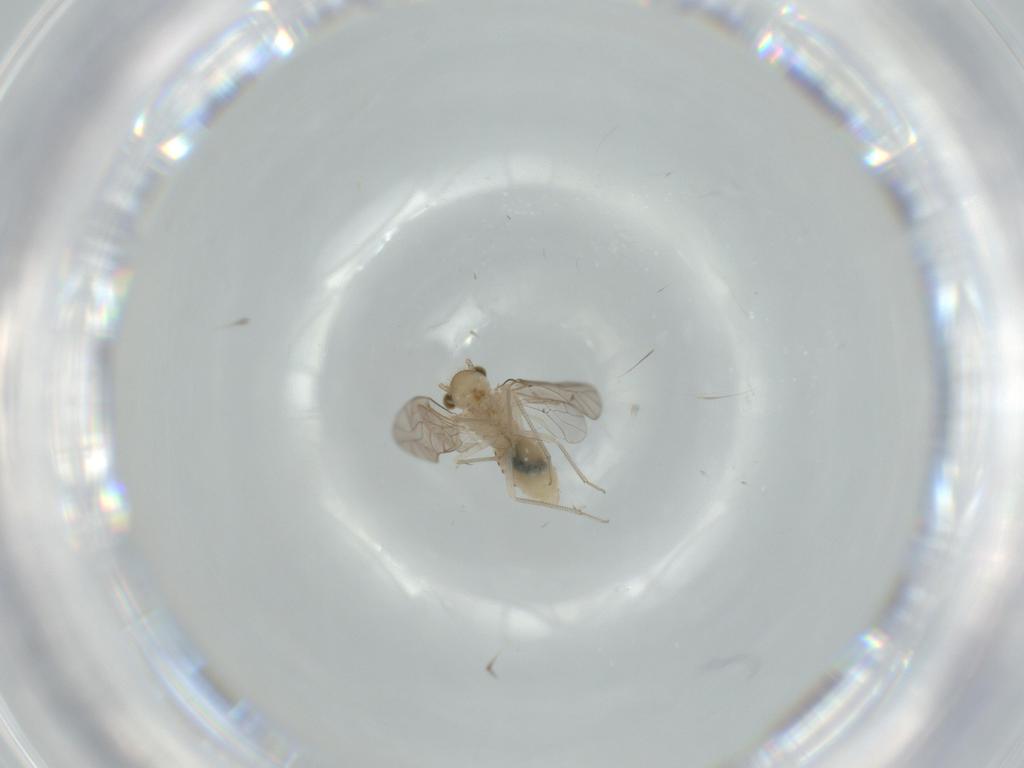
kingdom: Animalia
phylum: Arthropoda
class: Insecta
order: Psocodea
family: Lachesillidae
